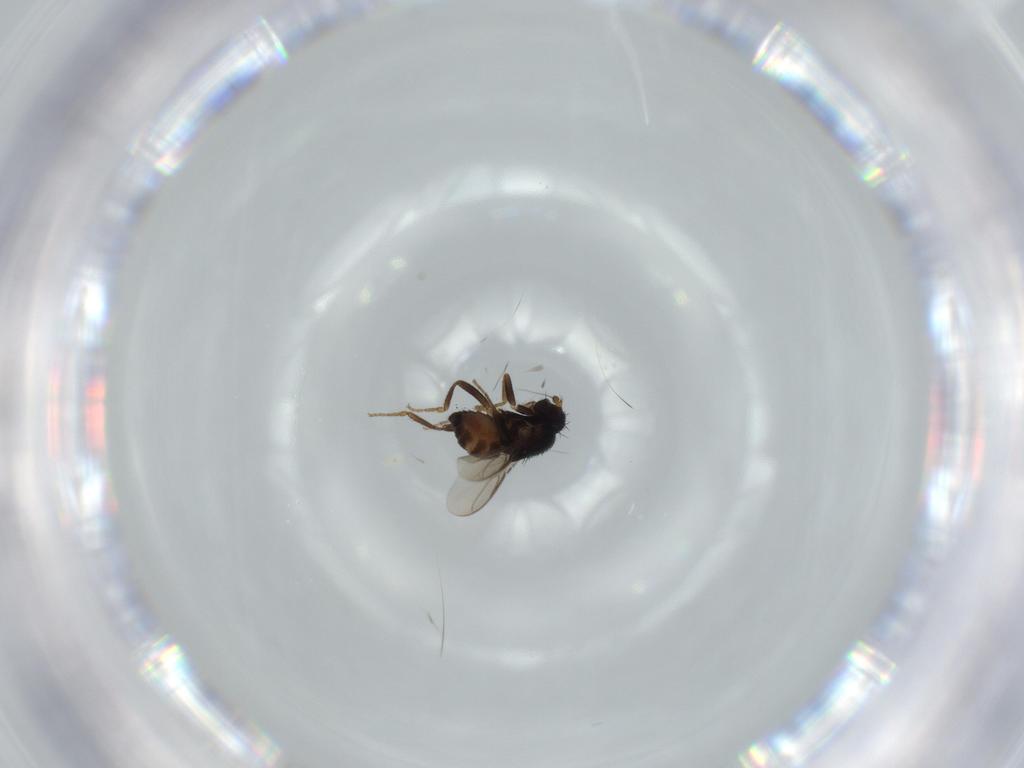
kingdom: Animalia
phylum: Arthropoda
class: Insecta
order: Diptera
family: Sphaeroceridae
